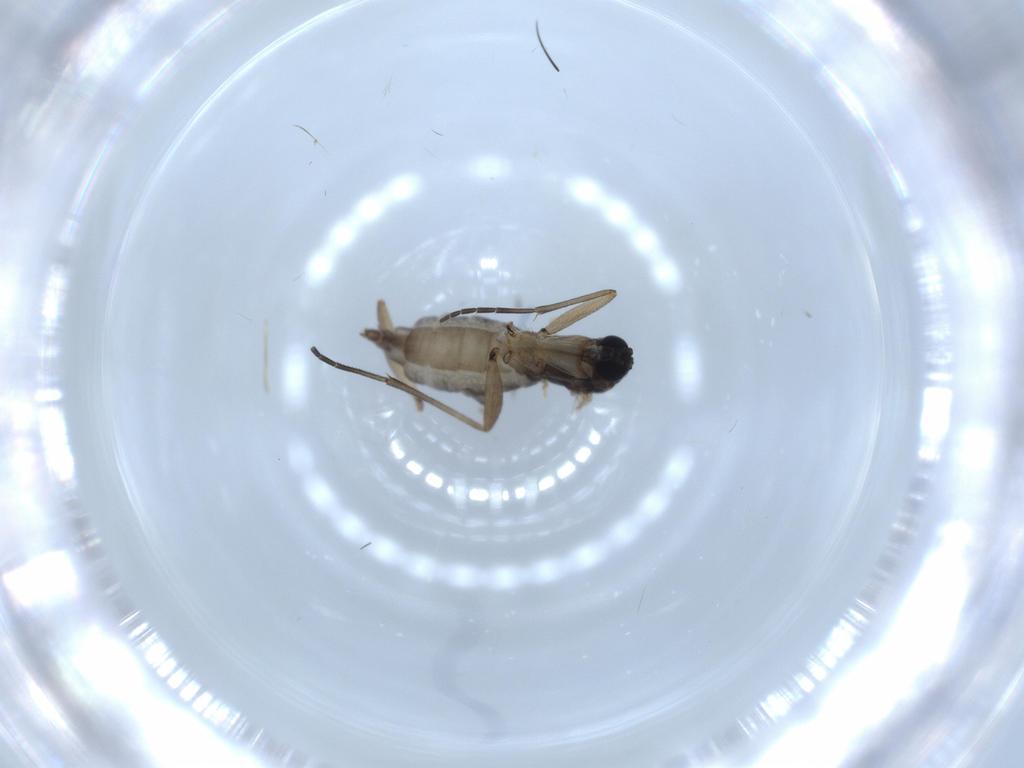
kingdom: Animalia
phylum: Arthropoda
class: Insecta
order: Diptera
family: Sciaridae
